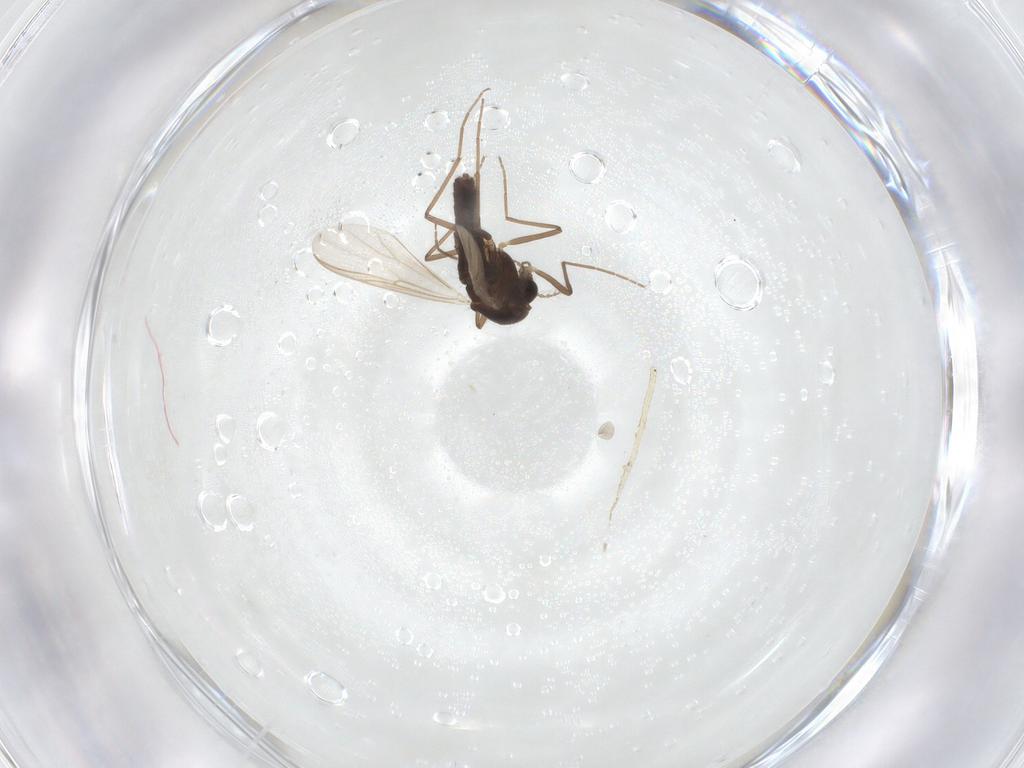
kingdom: Animalia
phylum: Arthropoda
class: Insecta
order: Diptera
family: Chironomidae
